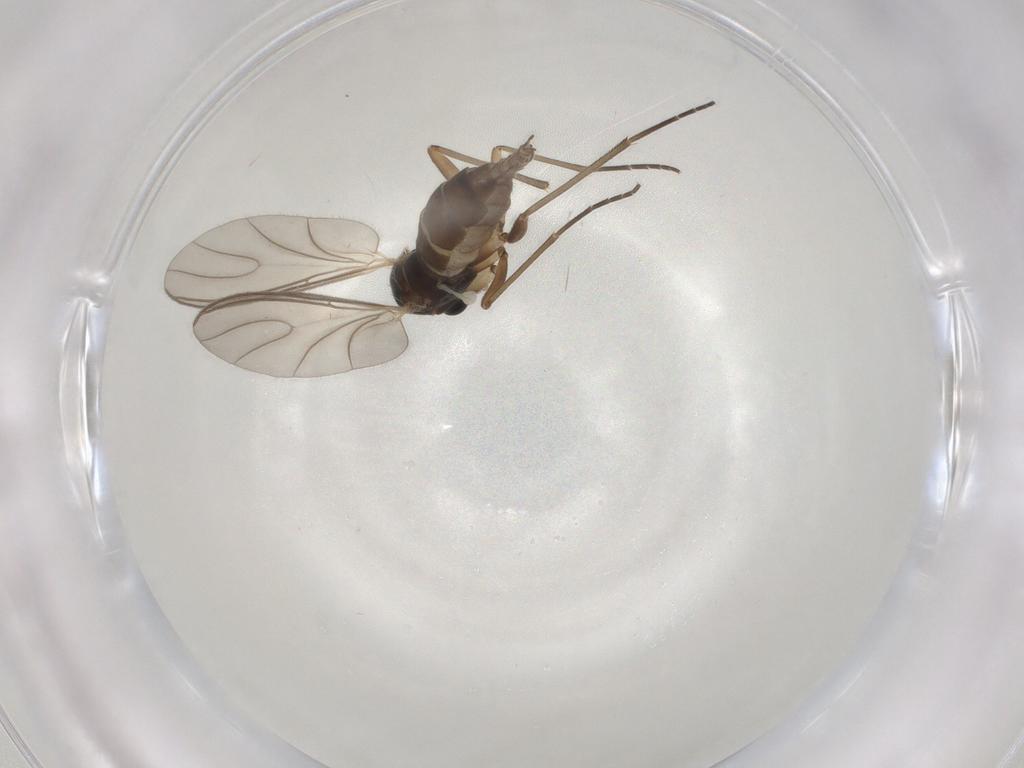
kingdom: Animalia
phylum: Arthropoda
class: Insecta
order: Diptera
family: Sciaridae
